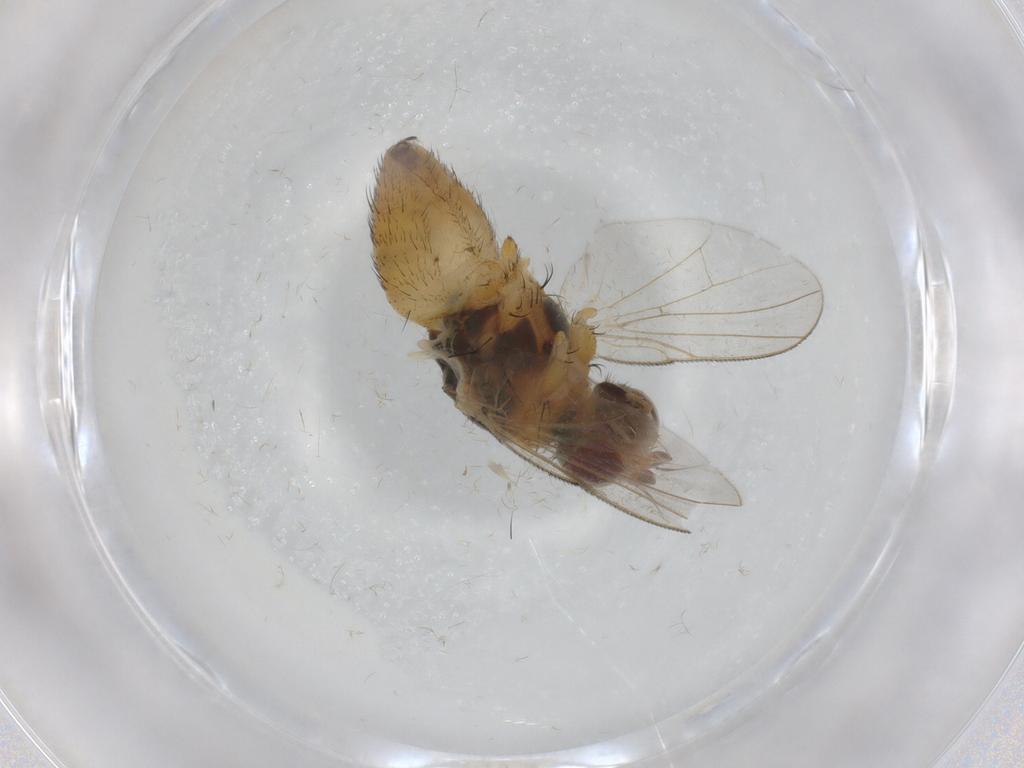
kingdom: Animalia
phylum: Arthropoda
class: Insecta
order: Diptera
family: Muscidae
